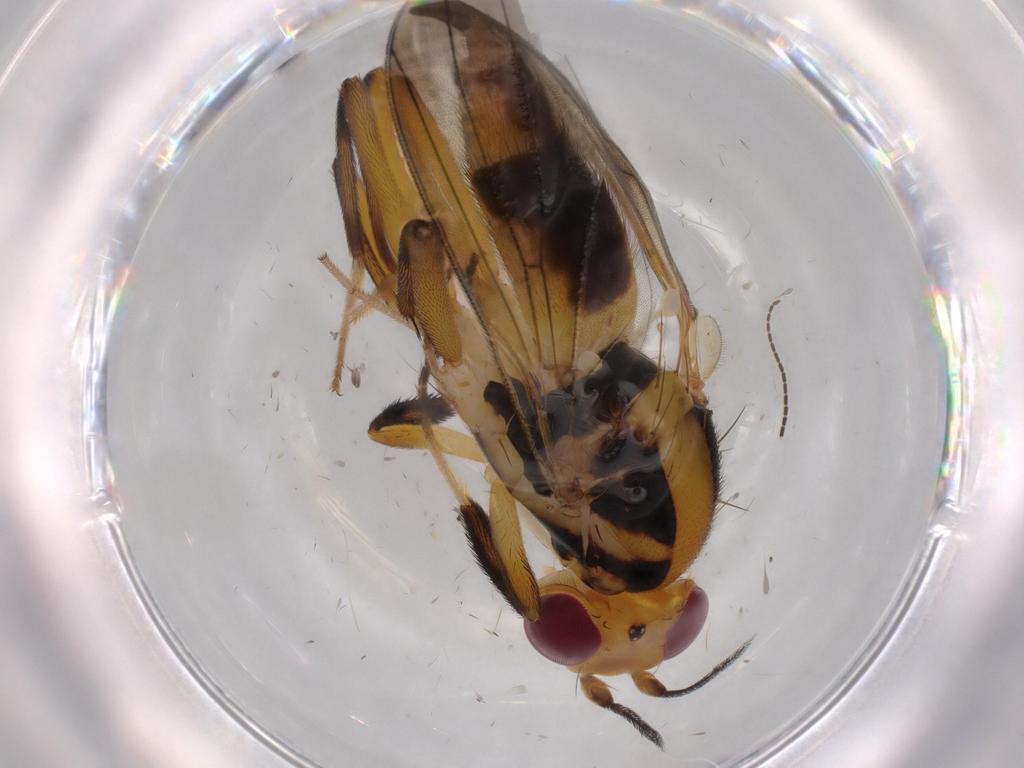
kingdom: Animalia
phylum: Arthropoda
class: Insecta
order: Diptera
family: Clusiidae
